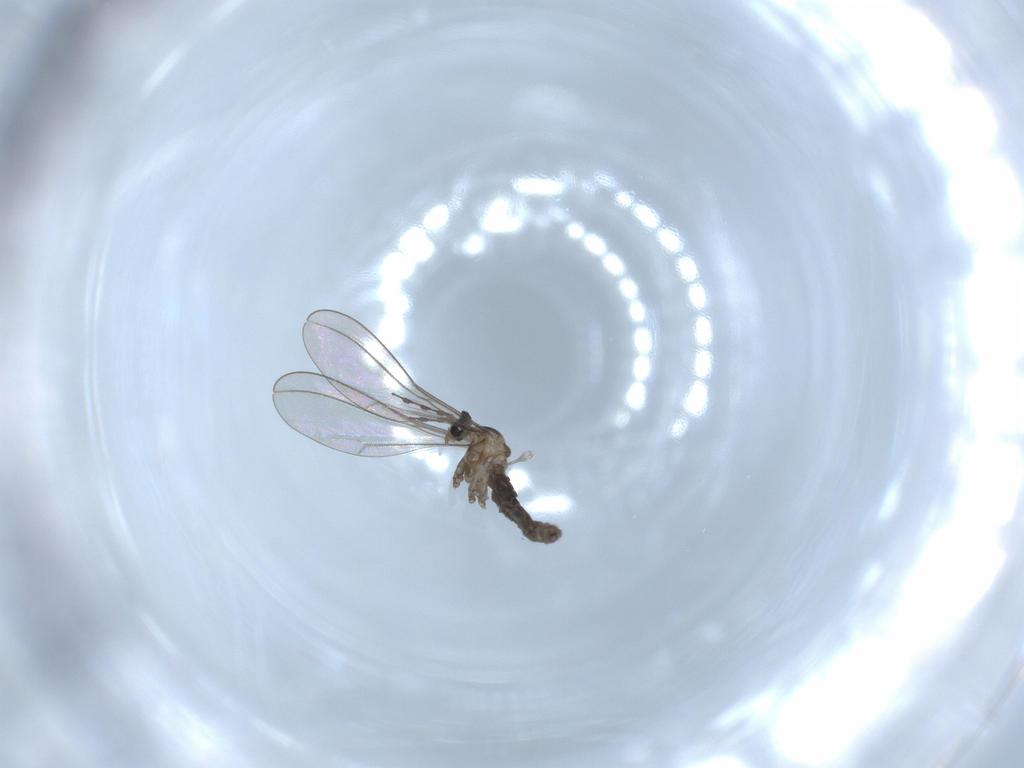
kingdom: Animalia
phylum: Arthropoda
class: Insecta
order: Diptera
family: Cecidomyiidae
